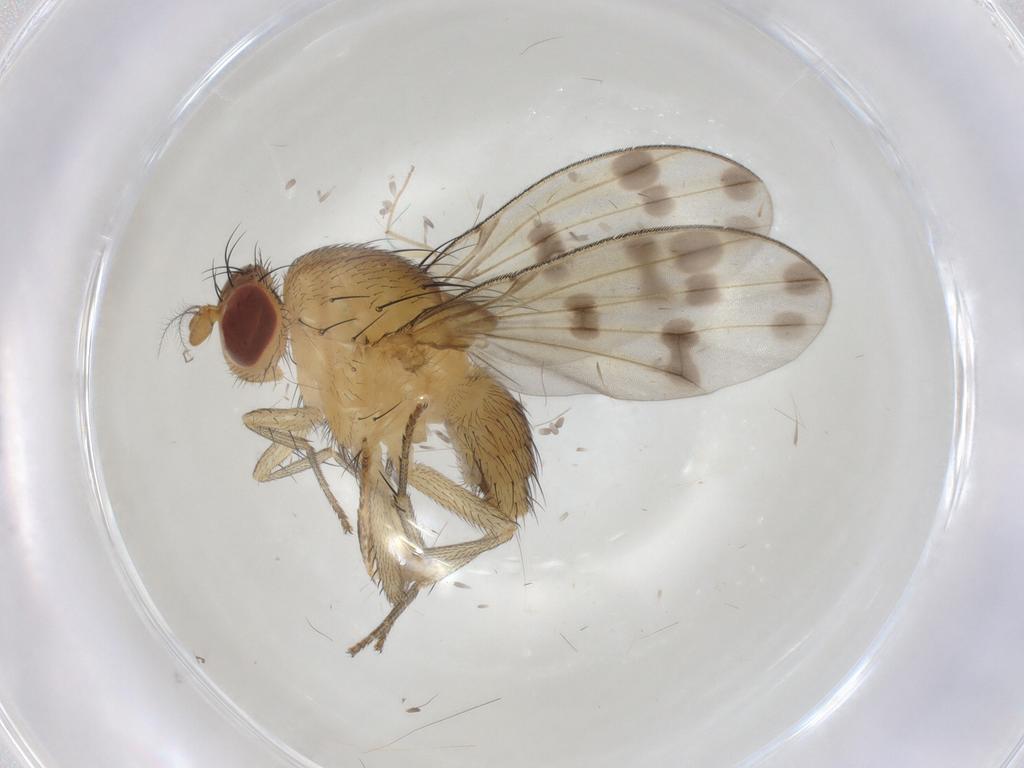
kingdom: Animalia
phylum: Arthropoda
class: Insecta
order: Diptera
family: Chironomidae
